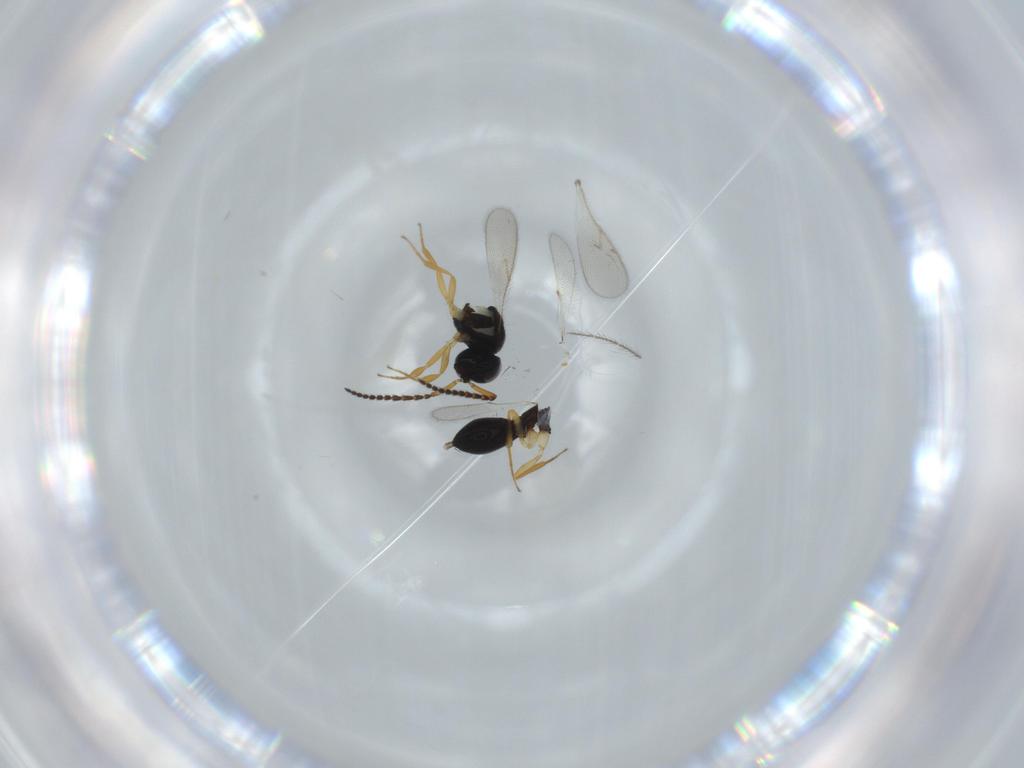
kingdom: Animalia
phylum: Arthropoda
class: Insecta
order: Hymenoptera
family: Scelionidae
